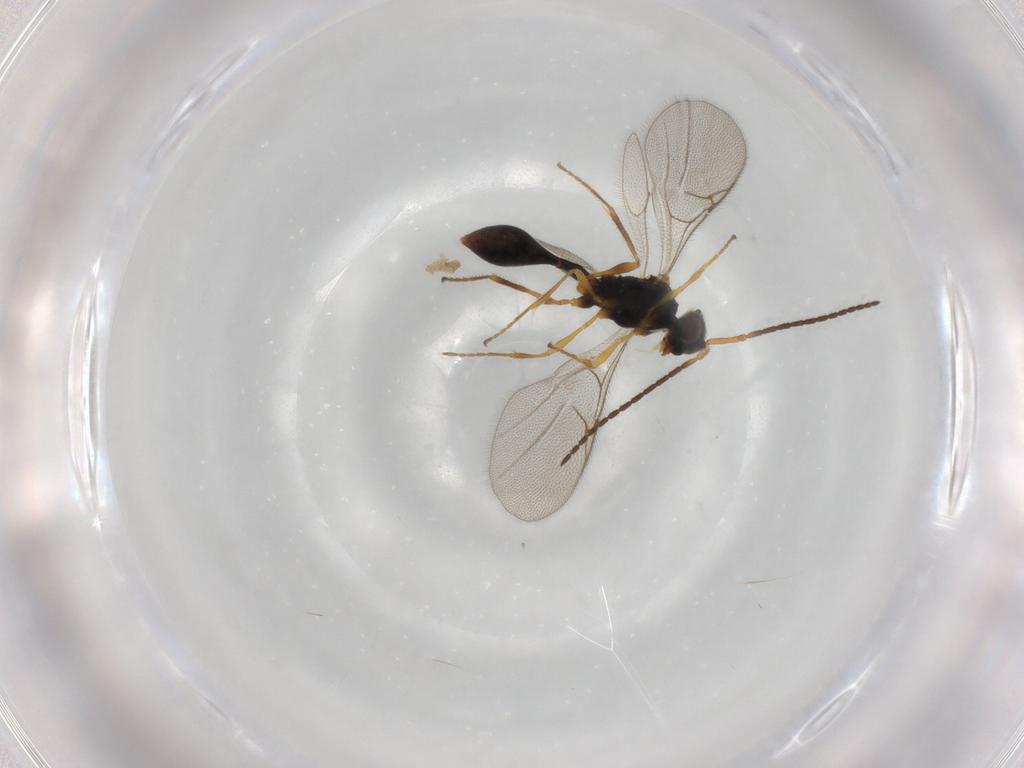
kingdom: Animalia
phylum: Arthropoda
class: Insecta
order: Hymenoptera
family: Diapriidae
